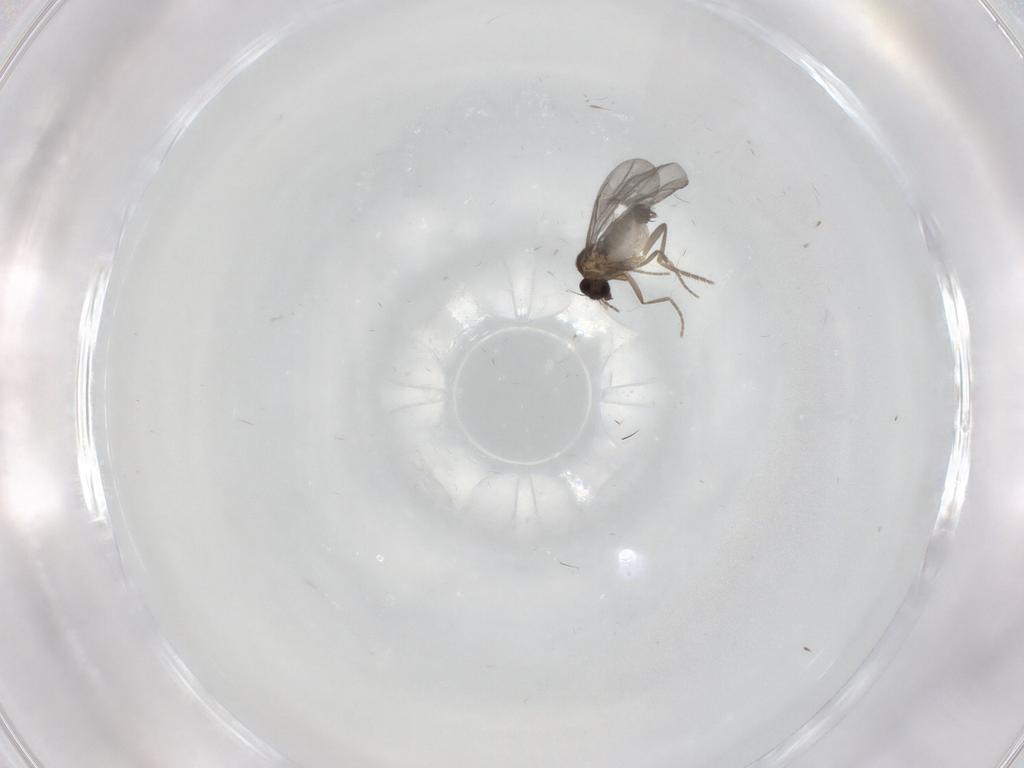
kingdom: Animalia
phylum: Arthropoda
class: Insecta
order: Diptera
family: Phoridae
